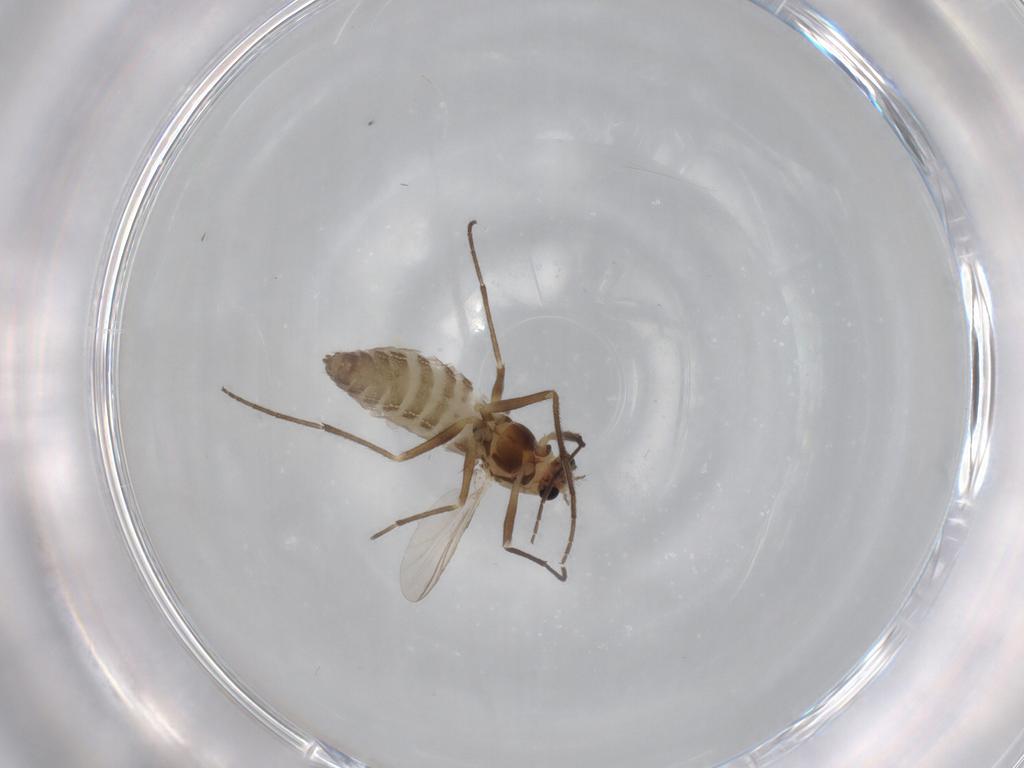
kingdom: Animalia
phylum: Arthropoda
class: Insecta
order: Diptera
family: Chironomidae
